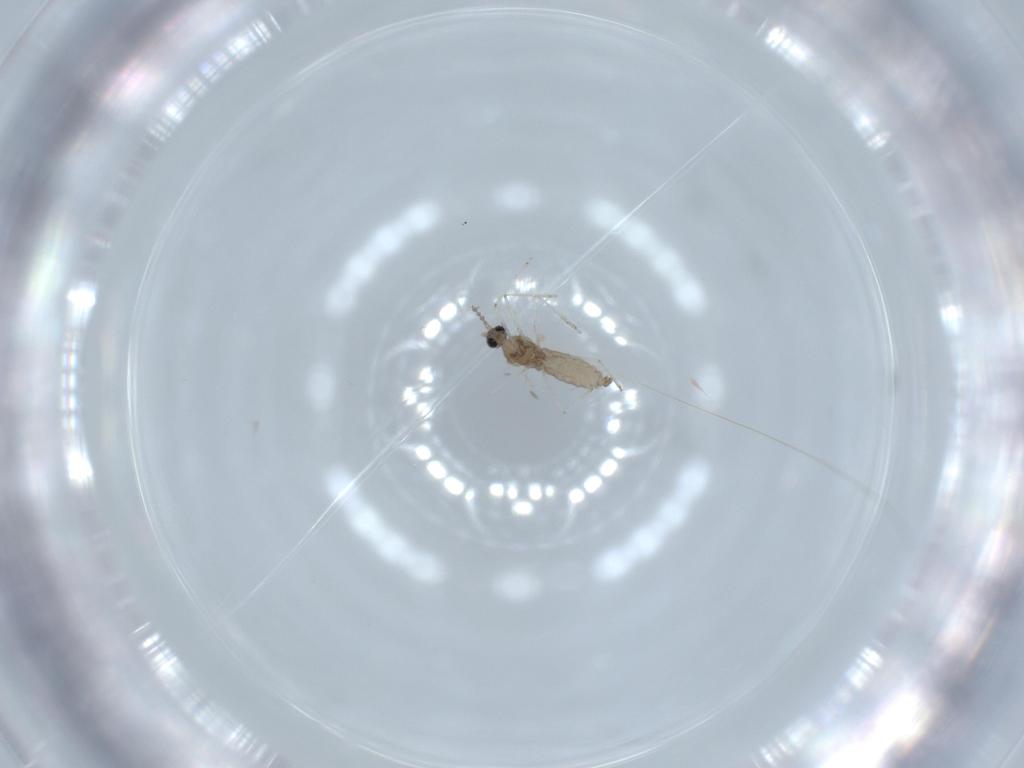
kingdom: Animalia
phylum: Arthropoda
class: Insecta
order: Diptera
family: Cecidomyiidae
